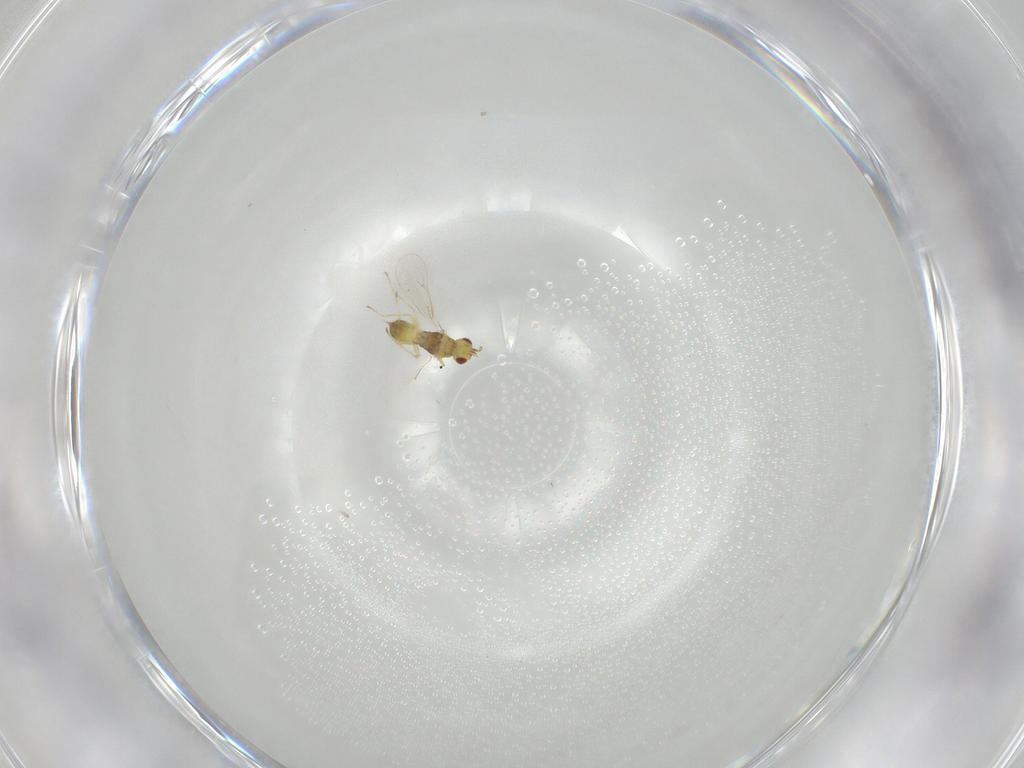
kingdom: Animalia
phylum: Arthropoda
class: Insecta
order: Hymenoptera
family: Eulophidae
